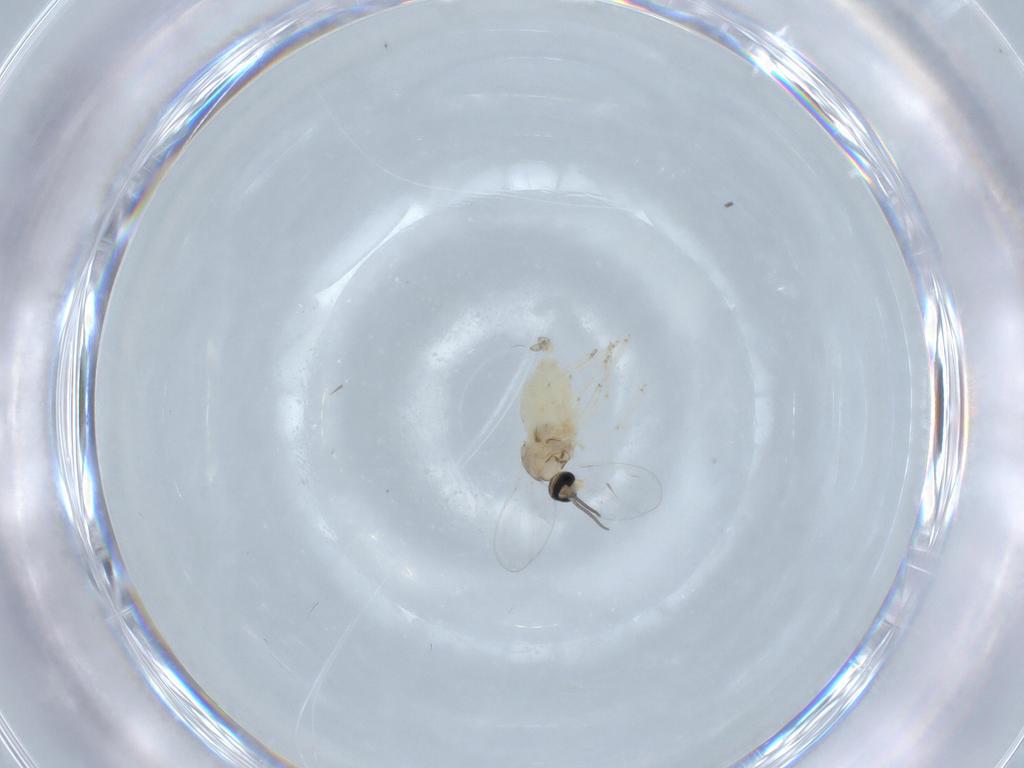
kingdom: Animalia
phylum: Arthropoda
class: Insecta
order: Diptera
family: Cecidomyiidae
